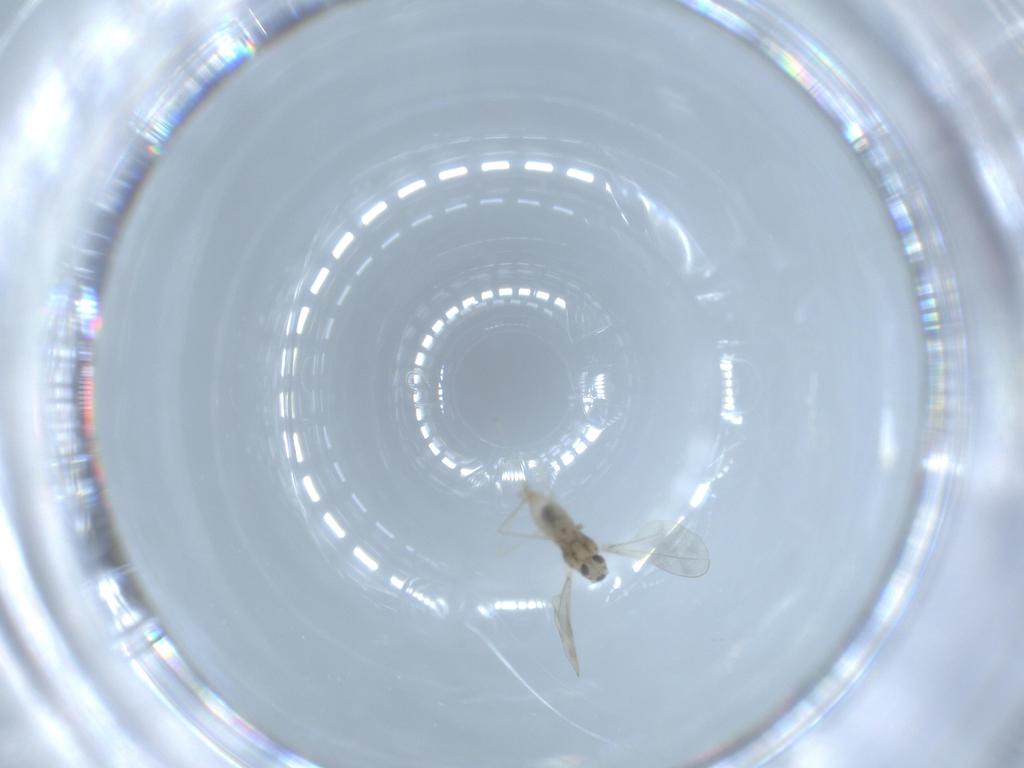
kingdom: Animalia
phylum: Arthropoda
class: Insecta
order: Diptera
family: Cecidomyiidae
